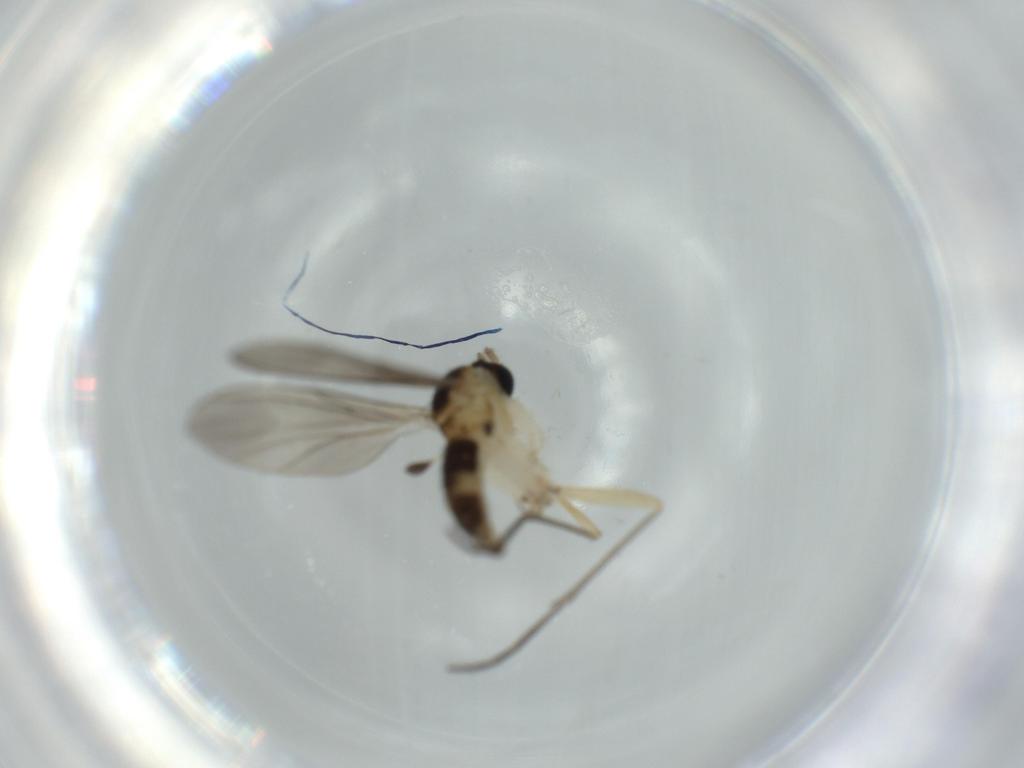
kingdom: Animalia
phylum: Arthropoda
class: Insecta
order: Diptera
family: Sciaridae
